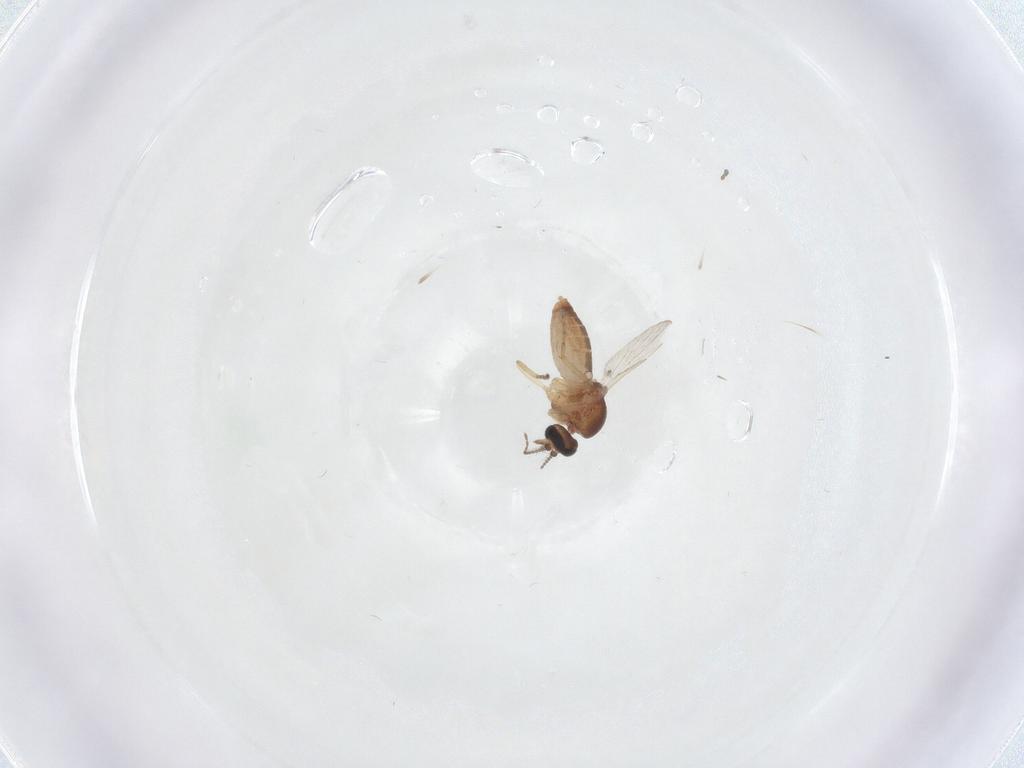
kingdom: Animalia
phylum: Arthropoda
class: Insecta
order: Diptera
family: Ceratopogonidae
